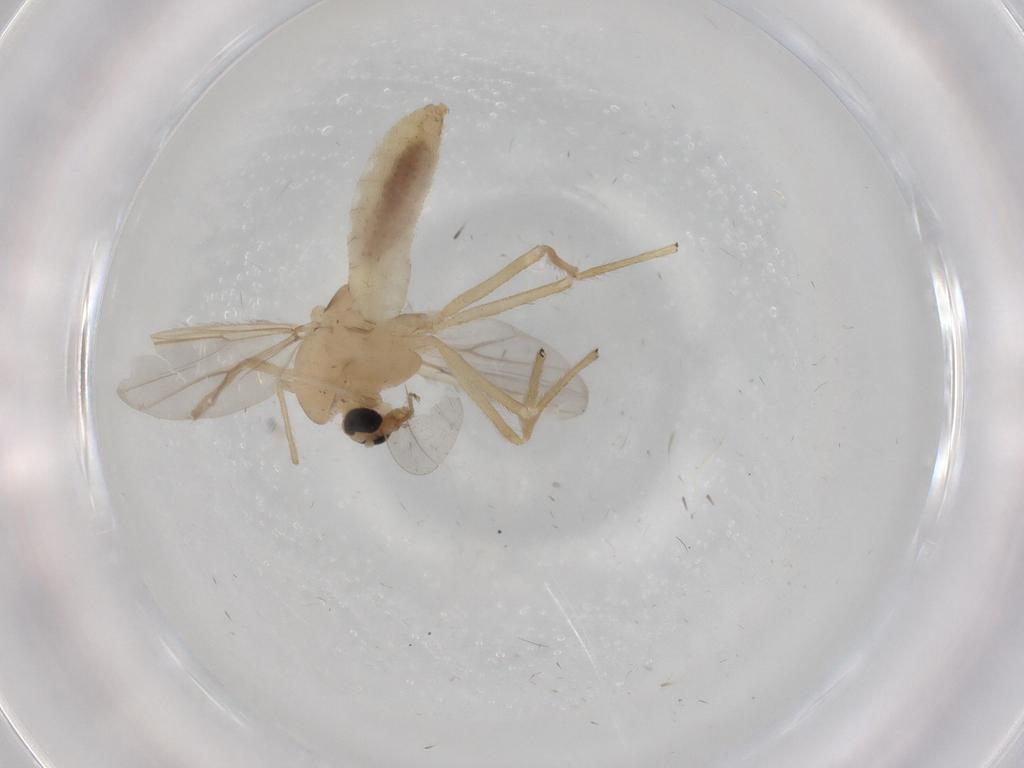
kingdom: Animalia
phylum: Arthropoda
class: Insecta
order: Diptera
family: Chironomidae
